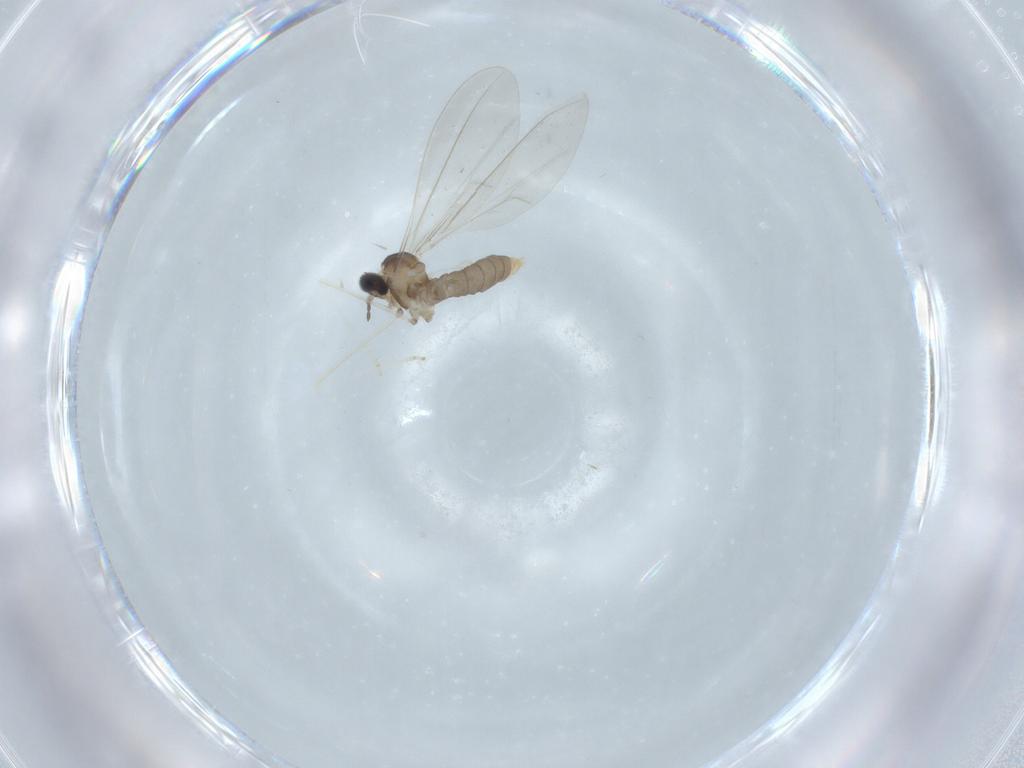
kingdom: Animalia
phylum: Arthropoda
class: Insecta
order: Diptera
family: Cecidomyiidae
